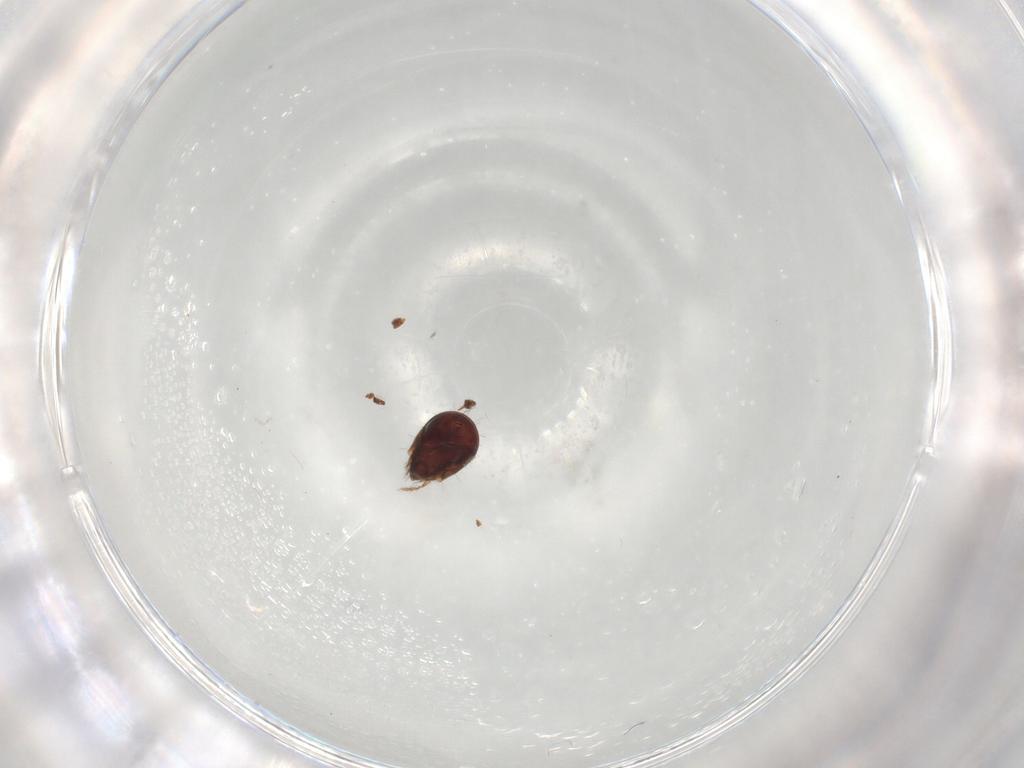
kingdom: Animalia
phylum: Arthropoda
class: Arachnida
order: Sarcoptiformes
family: Humerobatidae
